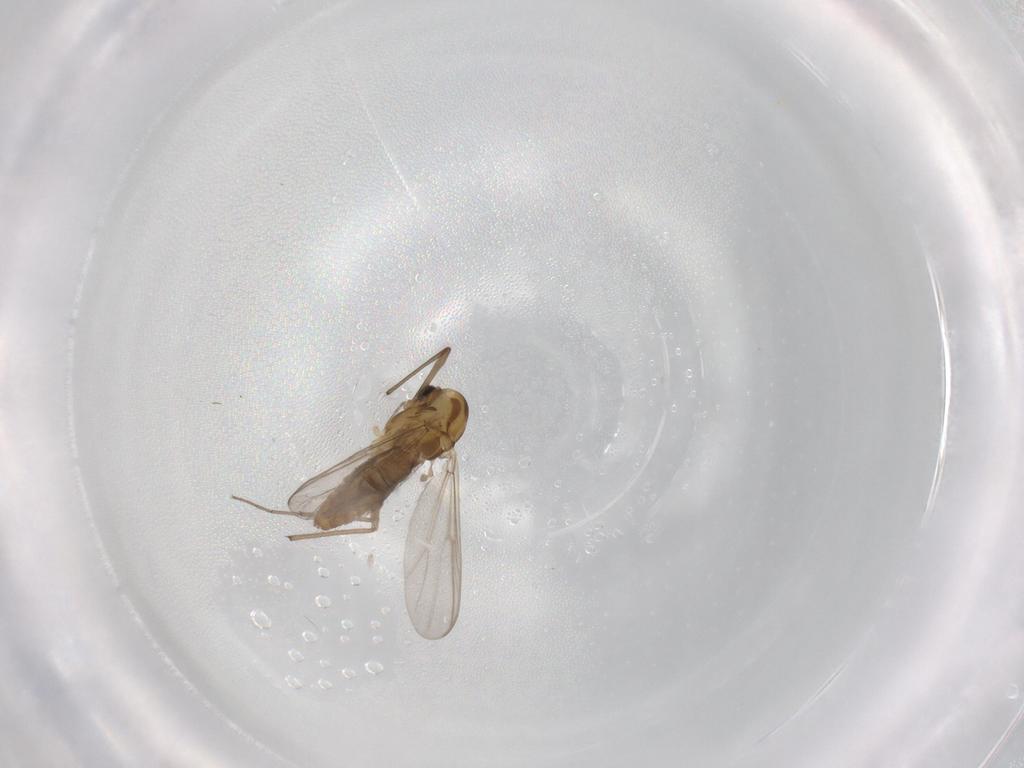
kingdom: Animalia
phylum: Arthropoda
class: Insecta
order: Diptera
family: Chironomidae
